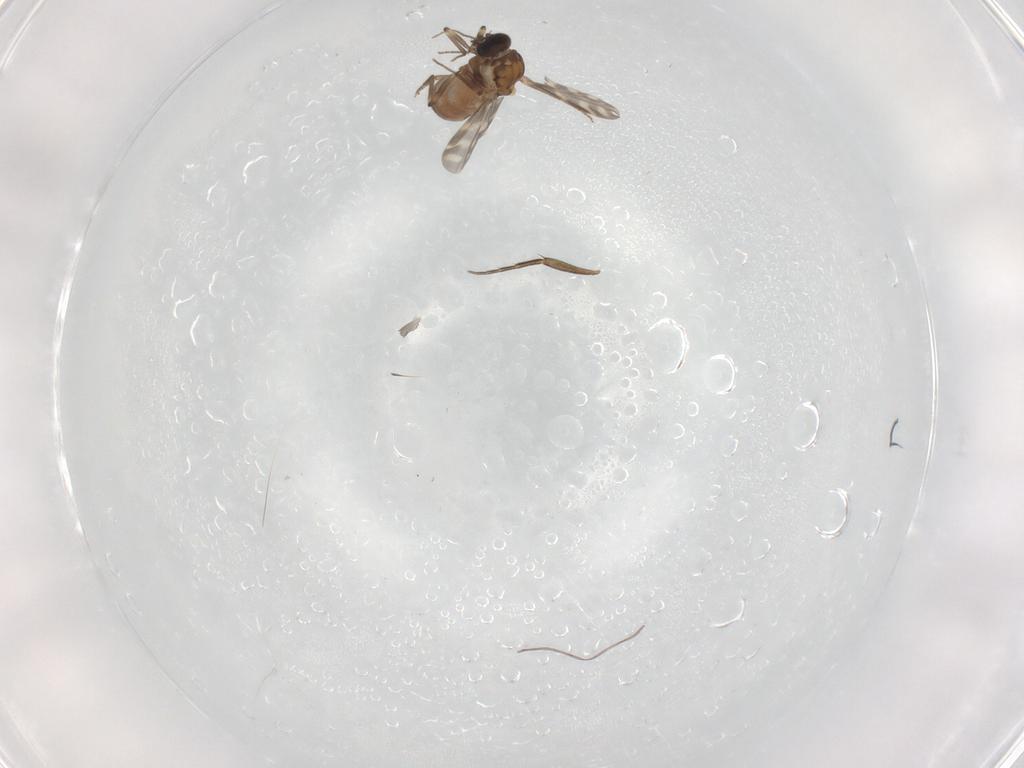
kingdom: Animalia
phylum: Arthropoda
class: Insecta
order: Diptera
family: Ceratopogonidae
